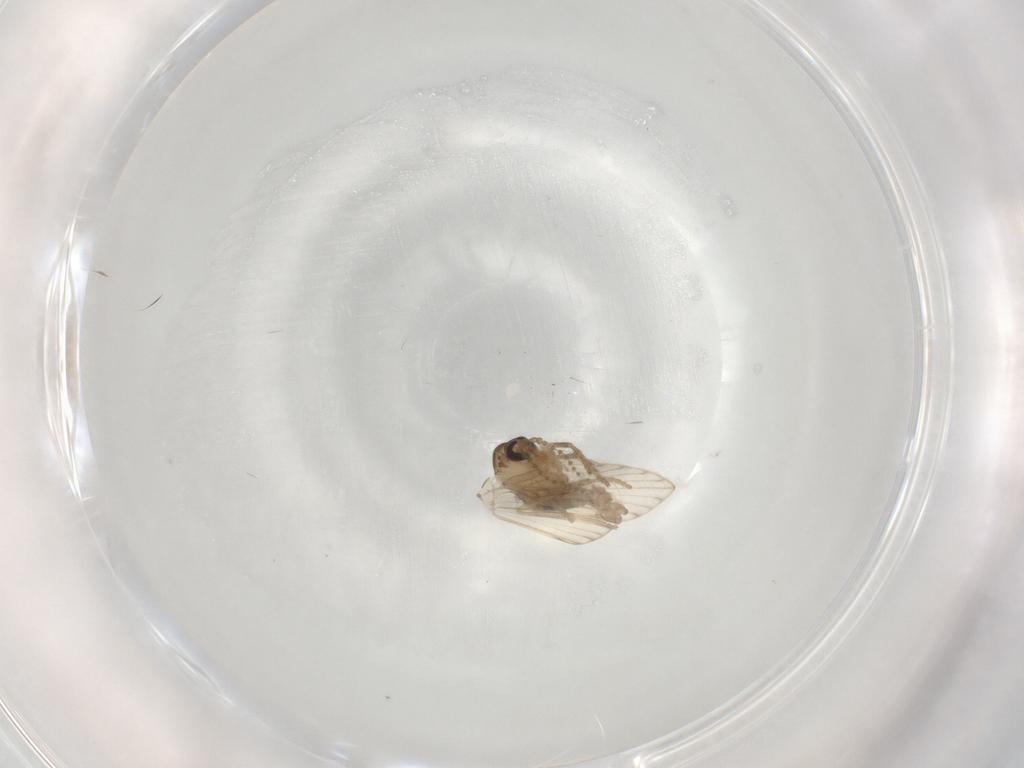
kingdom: Animalia
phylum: Arthropoda
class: Insecta
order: Diptera
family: Psychodidae
